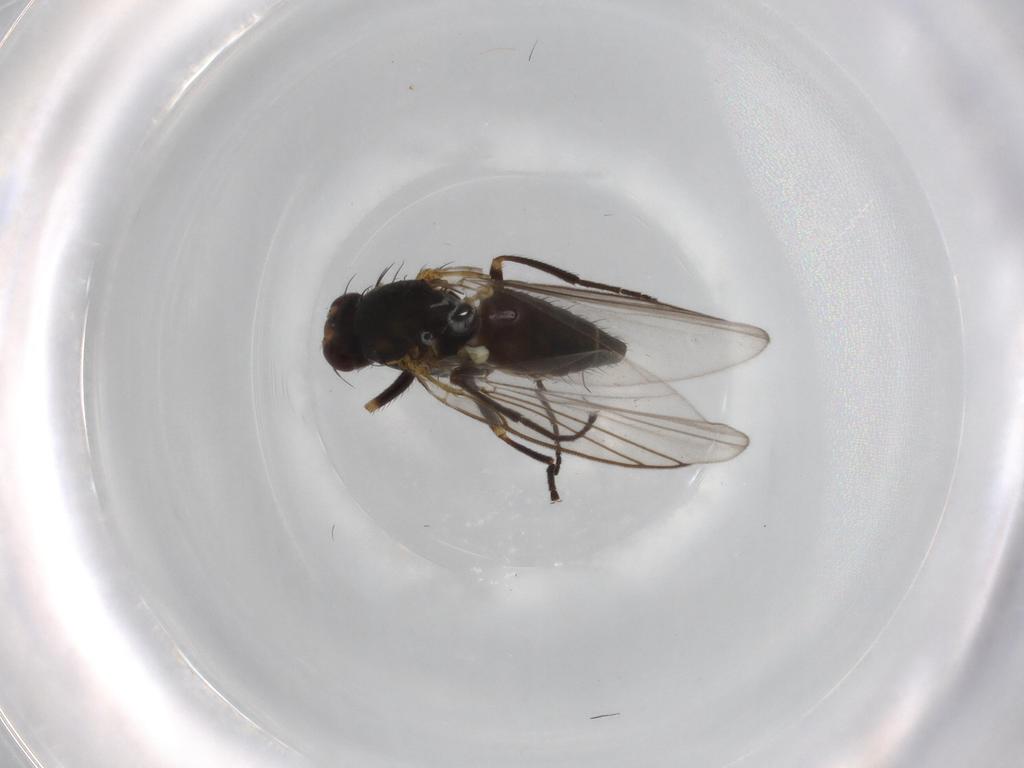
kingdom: Animalia
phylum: Arthropoda
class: Insecta
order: Diptera
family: Agromyzidae
